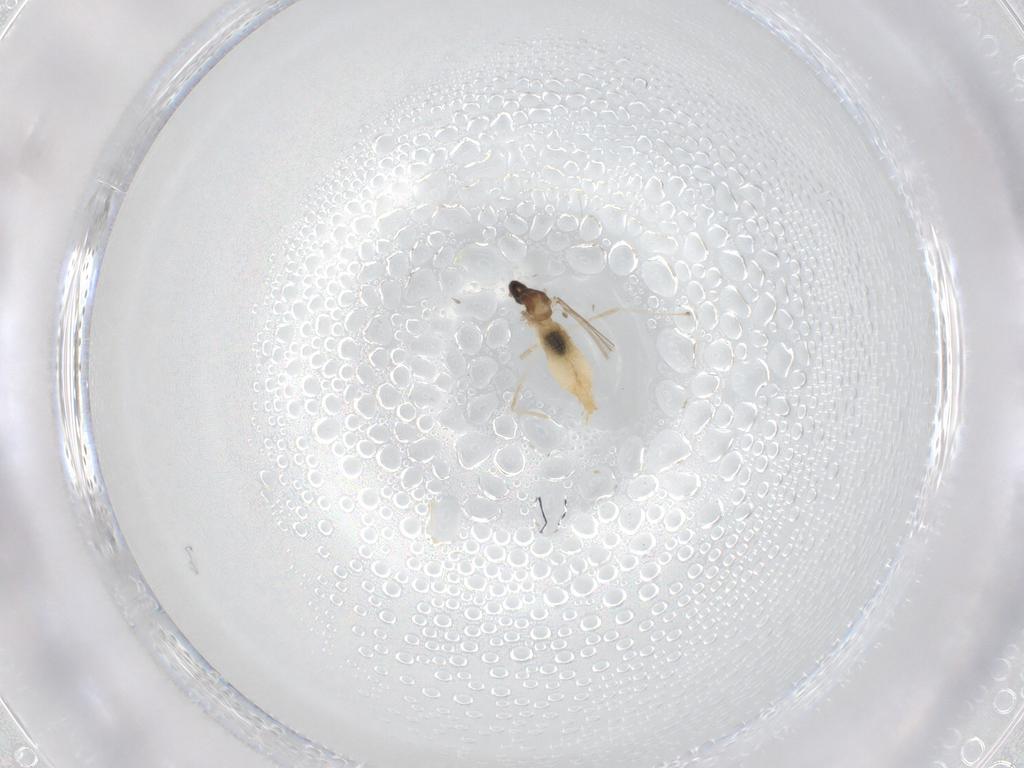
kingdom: Animalia
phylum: Arthropoda
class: Insecta
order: Diptera
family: Cecidomyiidae
